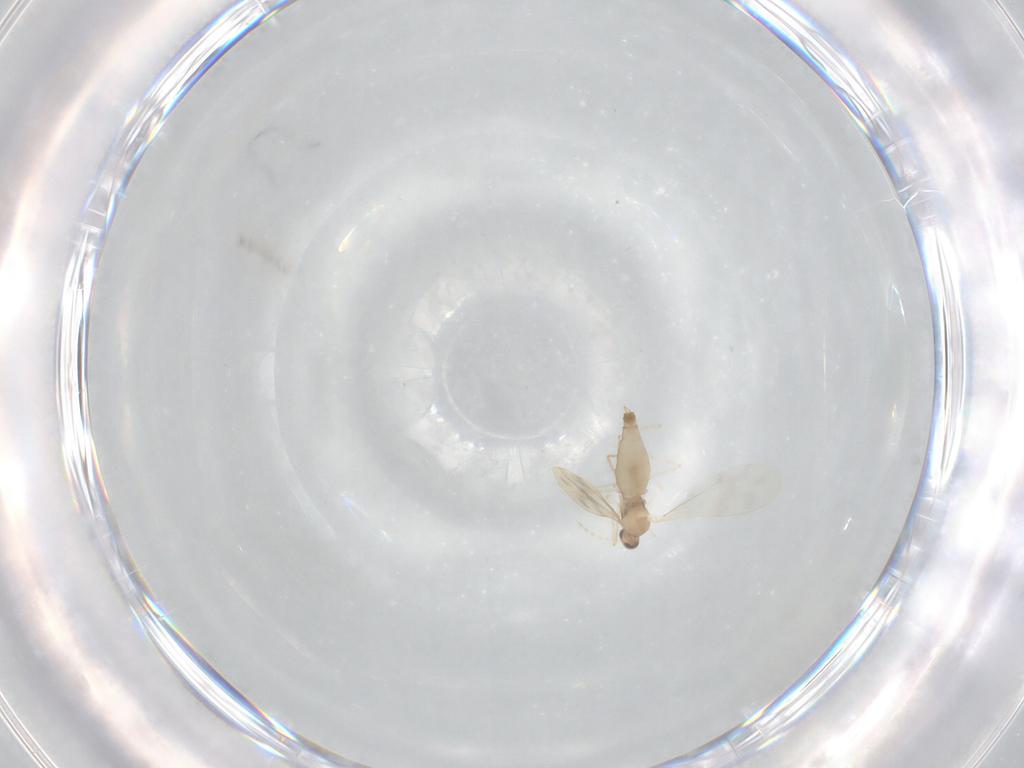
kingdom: Animalia
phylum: Arthropoda
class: Insecta
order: Diptera
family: Cecidomyiidae
